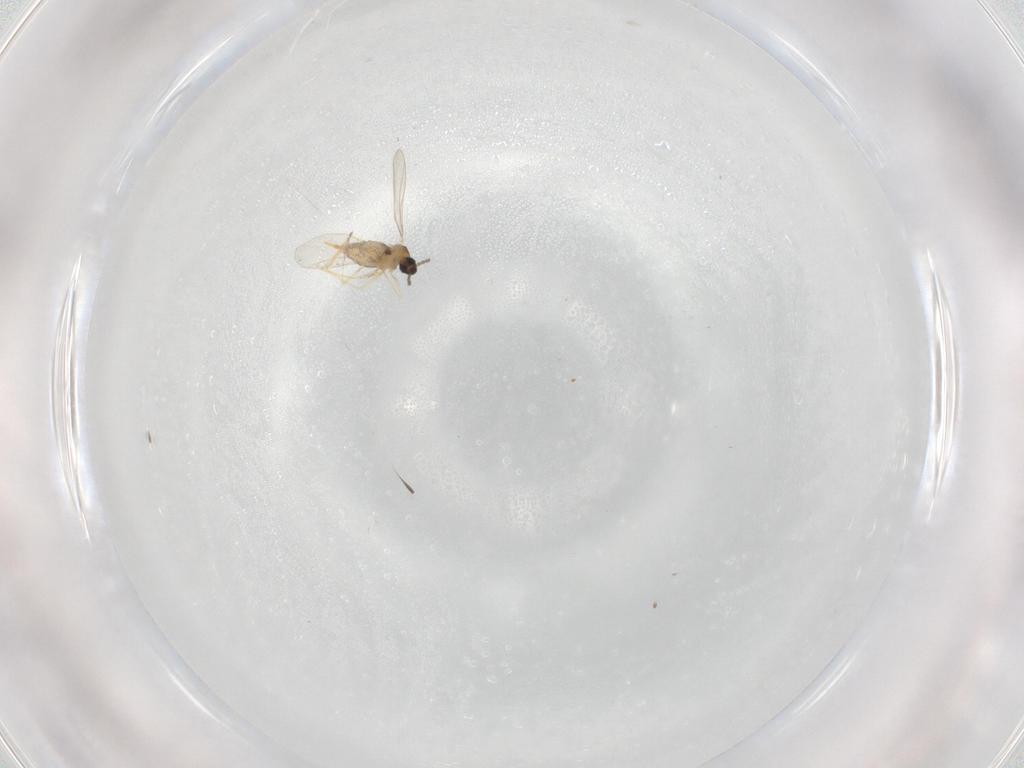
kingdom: Animalia
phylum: Arthropoda
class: Insecta
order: Diptera
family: Cecidomyiidae
